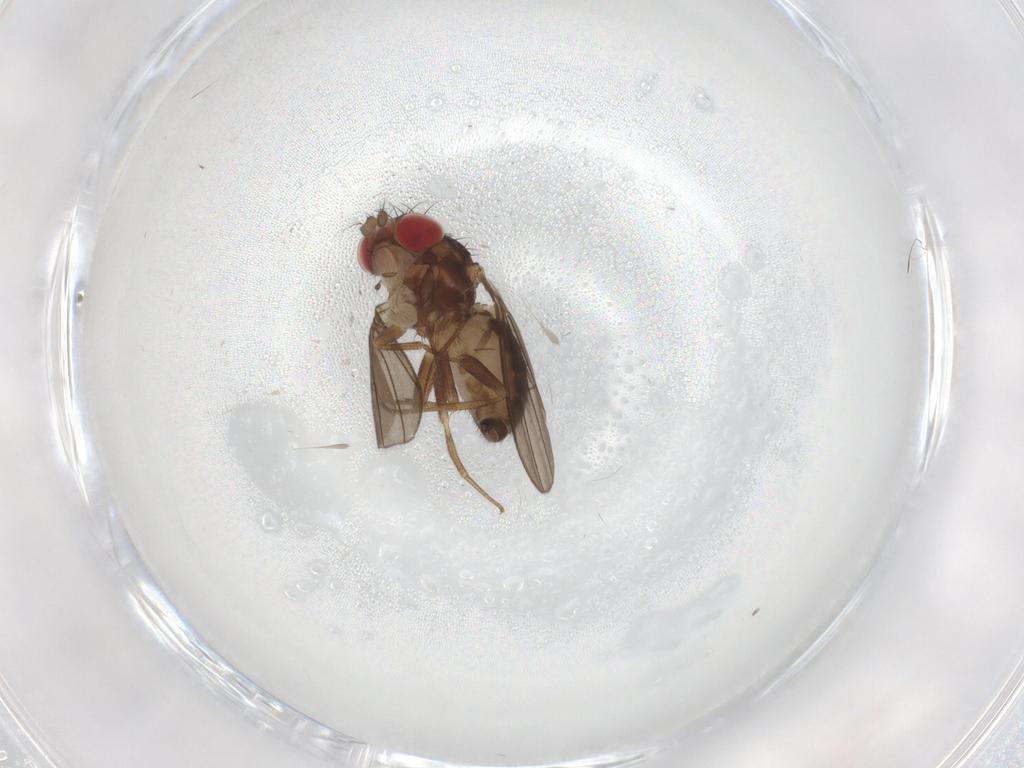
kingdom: Animalia
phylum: Arthropoda
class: Insecta
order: Diptera
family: Drosophilidae
